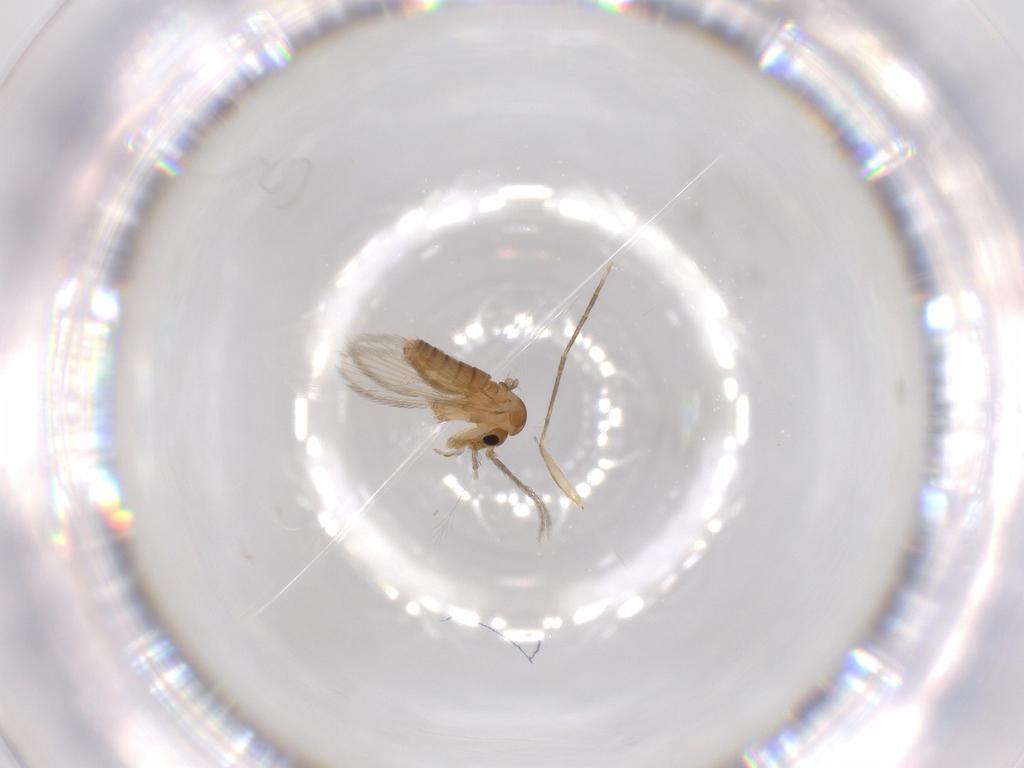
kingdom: Animalia
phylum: Arthropoda
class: Insecta
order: Diptera
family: Psychodidae
